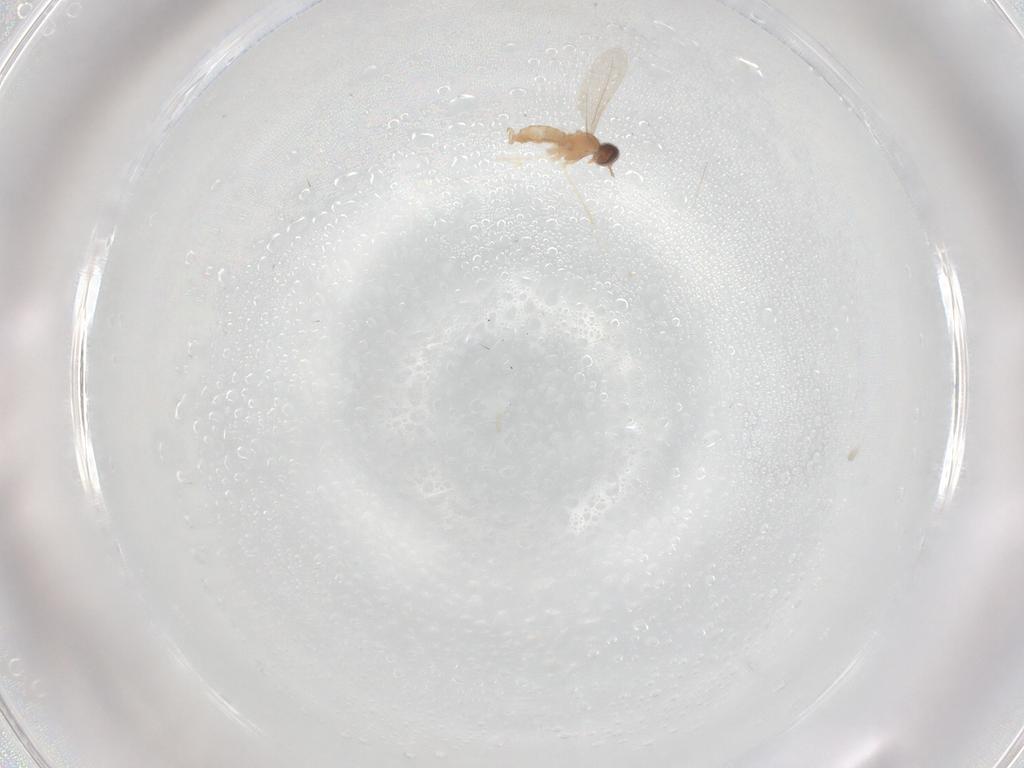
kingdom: Animalia
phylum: Arthropoda
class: Insecta
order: Diptera
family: Cecidomyiidae
